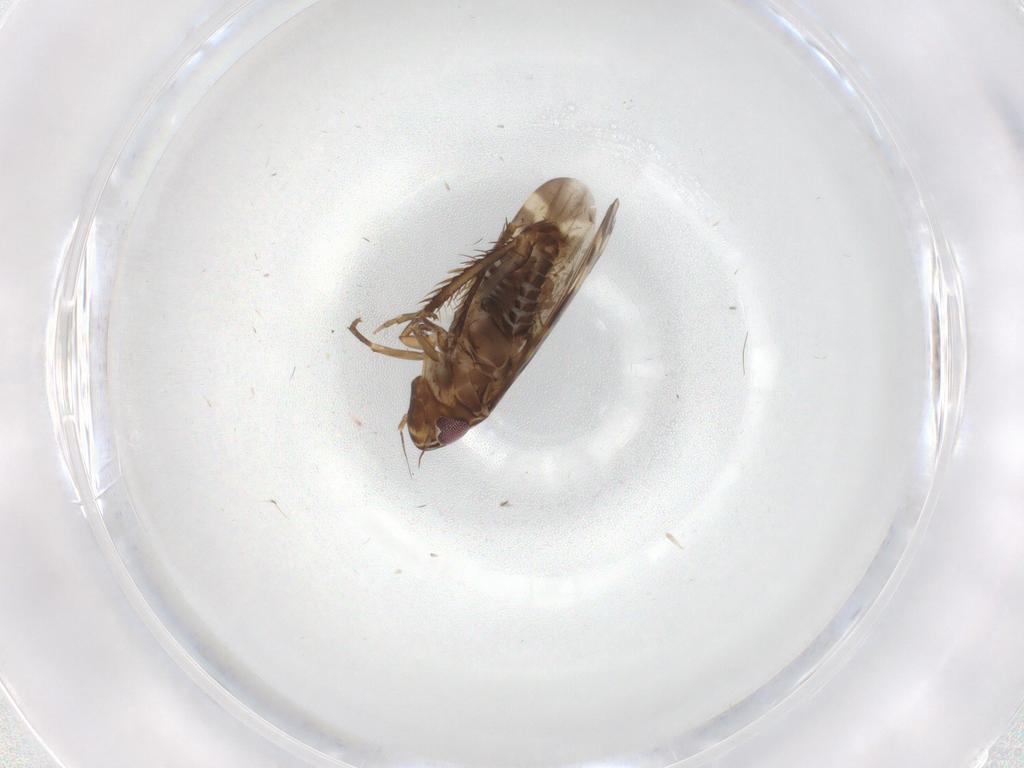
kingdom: Animalia
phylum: Arthropoda
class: Insecta
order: Hemiptera
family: Cicadellidae
